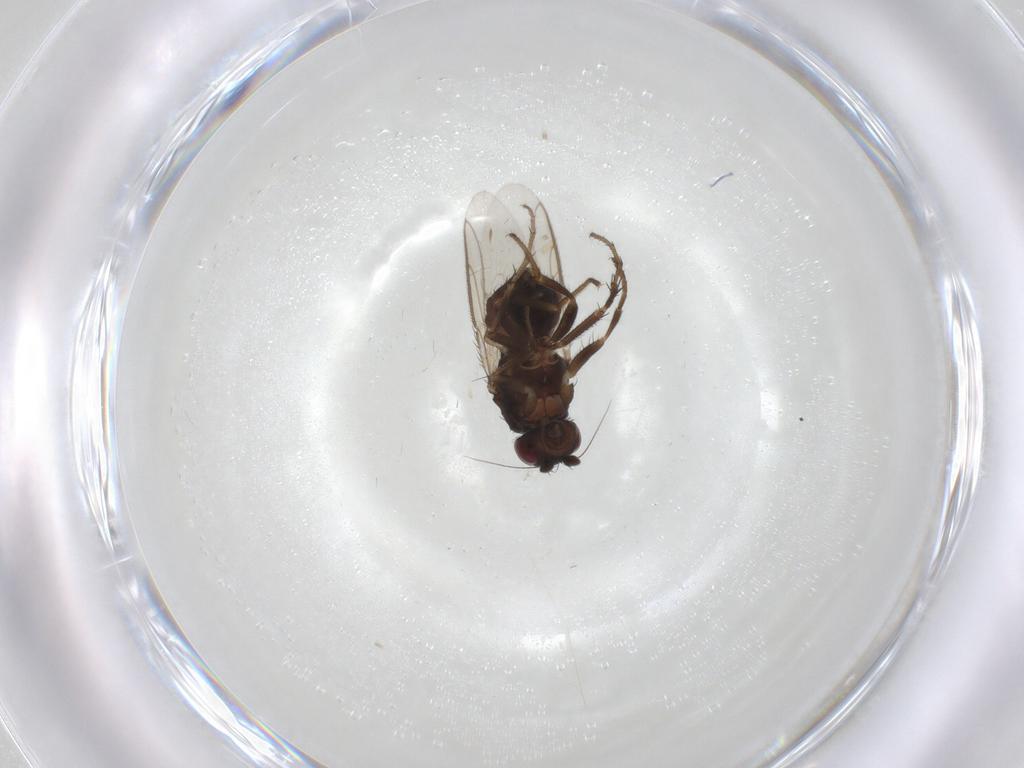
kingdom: Animalia
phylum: Arthropoda
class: Insecta
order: Diptera
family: Sphaeroceridae
